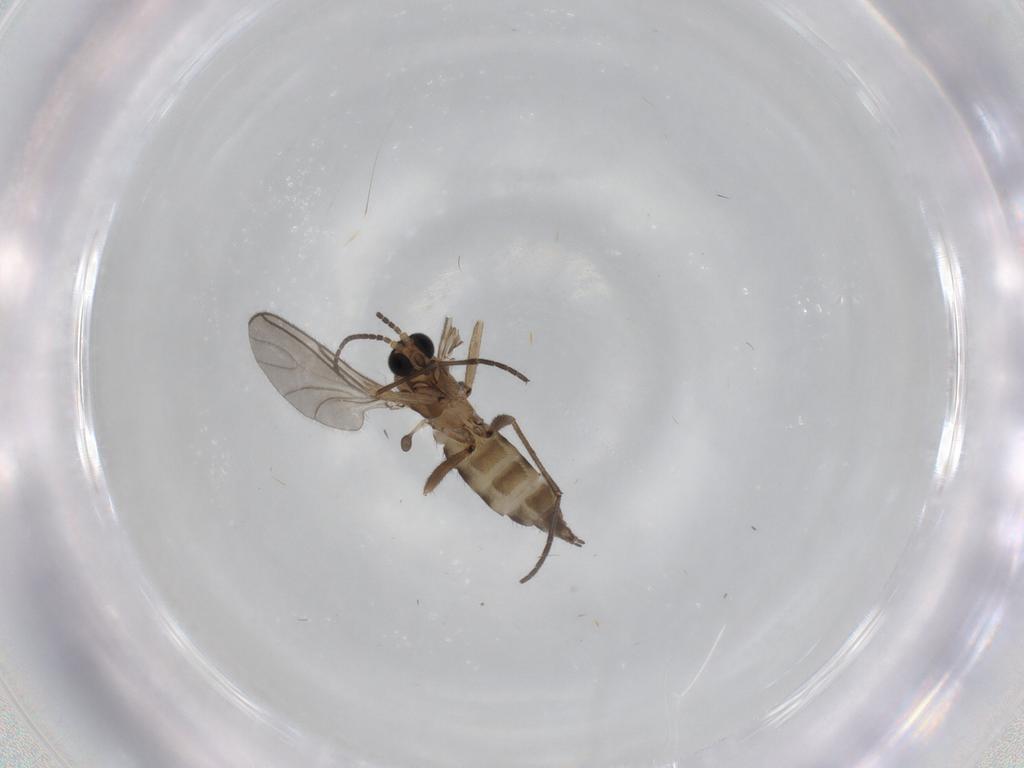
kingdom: Animalia
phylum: Arthropoda
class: Insecta
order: Diptera
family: Sciaridae
